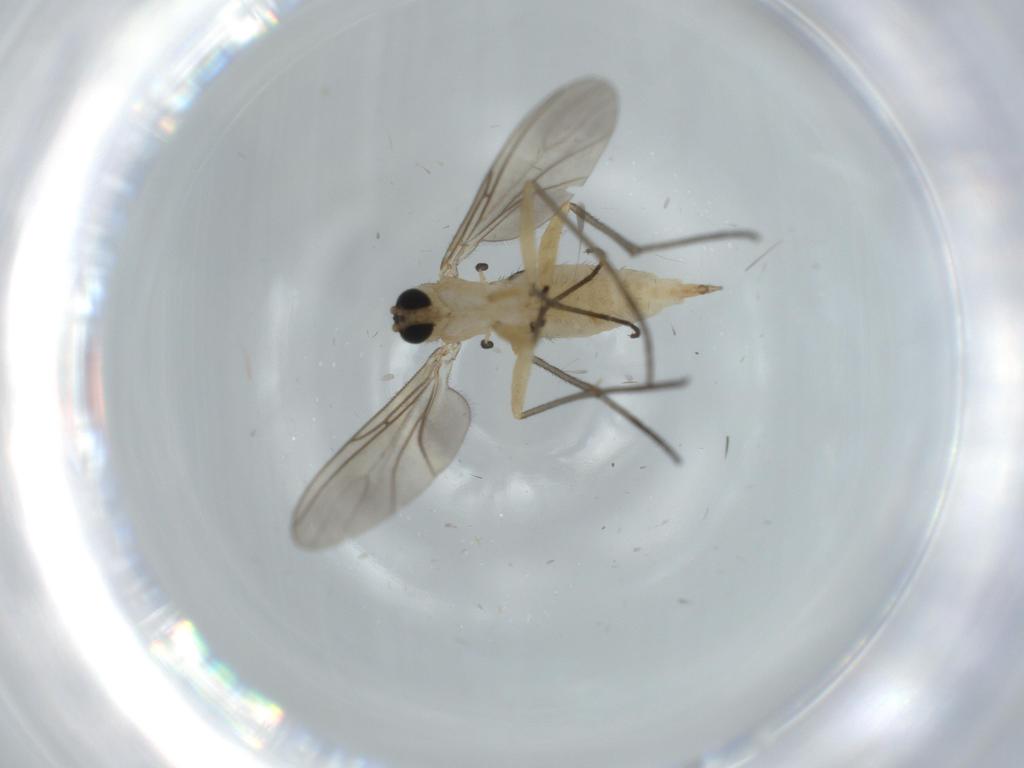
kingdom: Animalia
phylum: Arthropoda
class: Insecta
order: Diptera
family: Sciaridae
